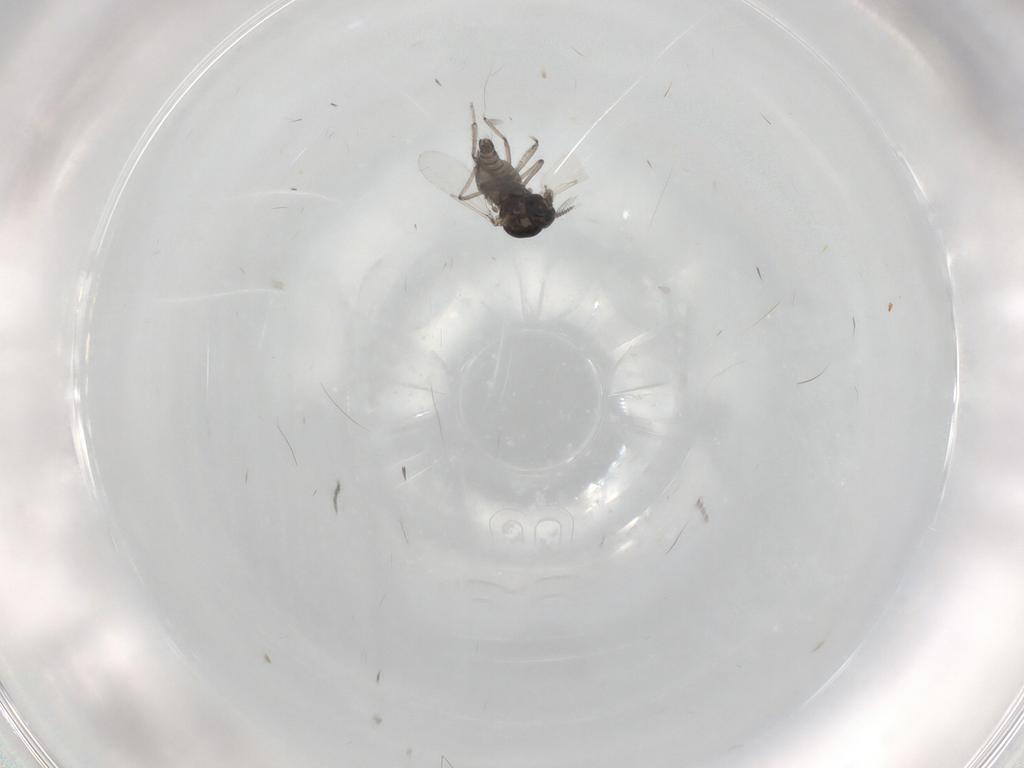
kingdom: Animalia
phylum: Arthropoda
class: Insecta
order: Diptera
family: Ceratopogonidae
